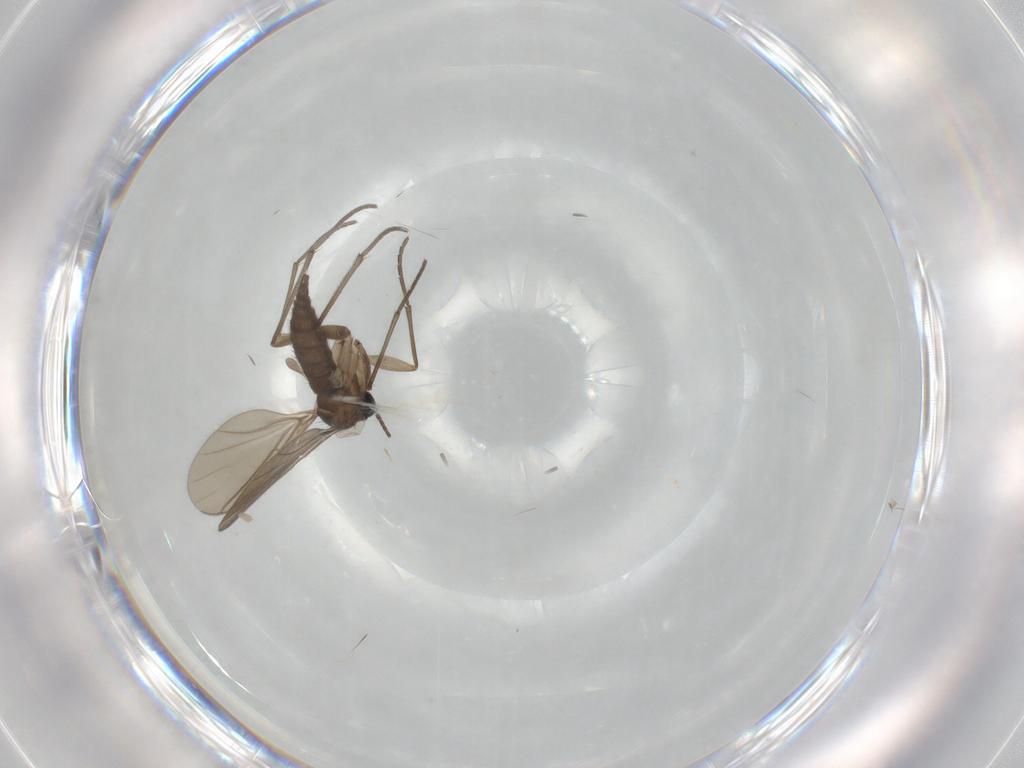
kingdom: Animalia
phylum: Arthropoda
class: Insecta
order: Diptera
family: Sciaridae
